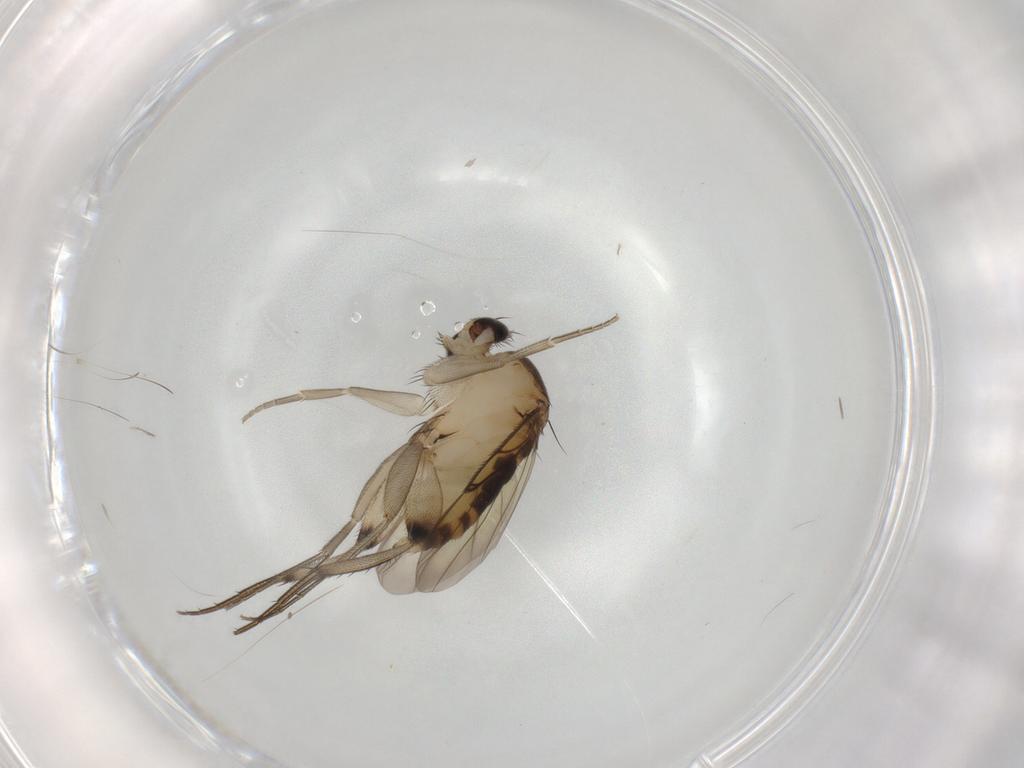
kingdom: Animalia
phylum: Arthropoda
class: Insecta
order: Diptera
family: Phoridae
